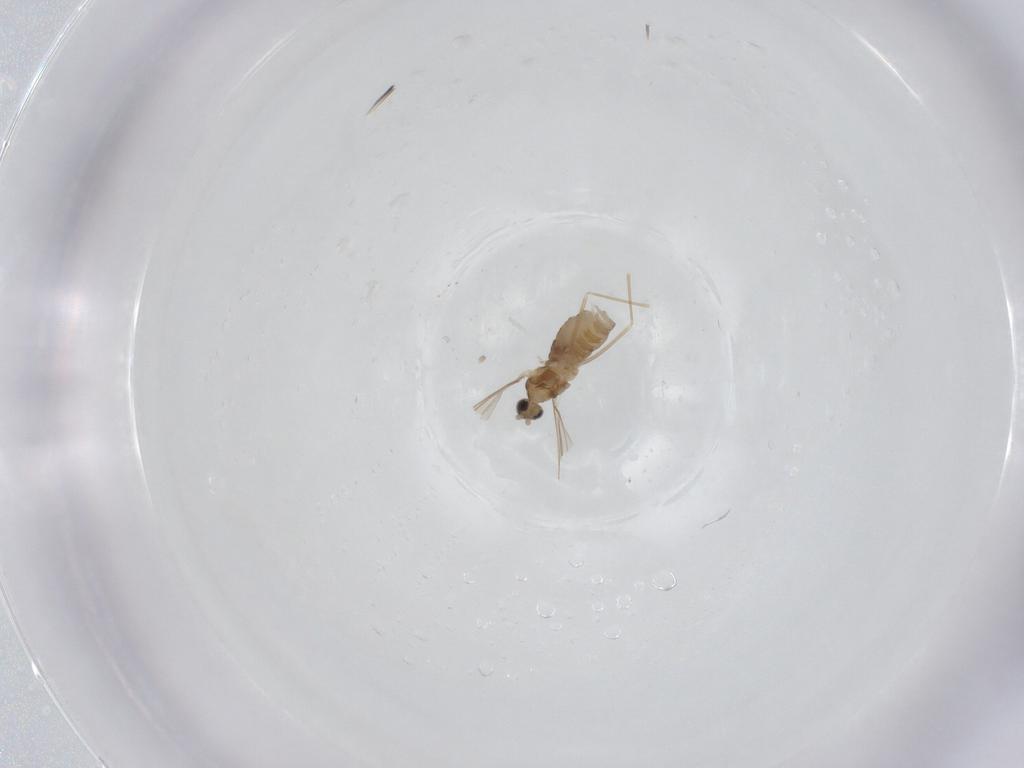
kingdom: Animalia
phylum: Arthropoda
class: Insecta
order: Diptera
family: Cecidomyiidae
